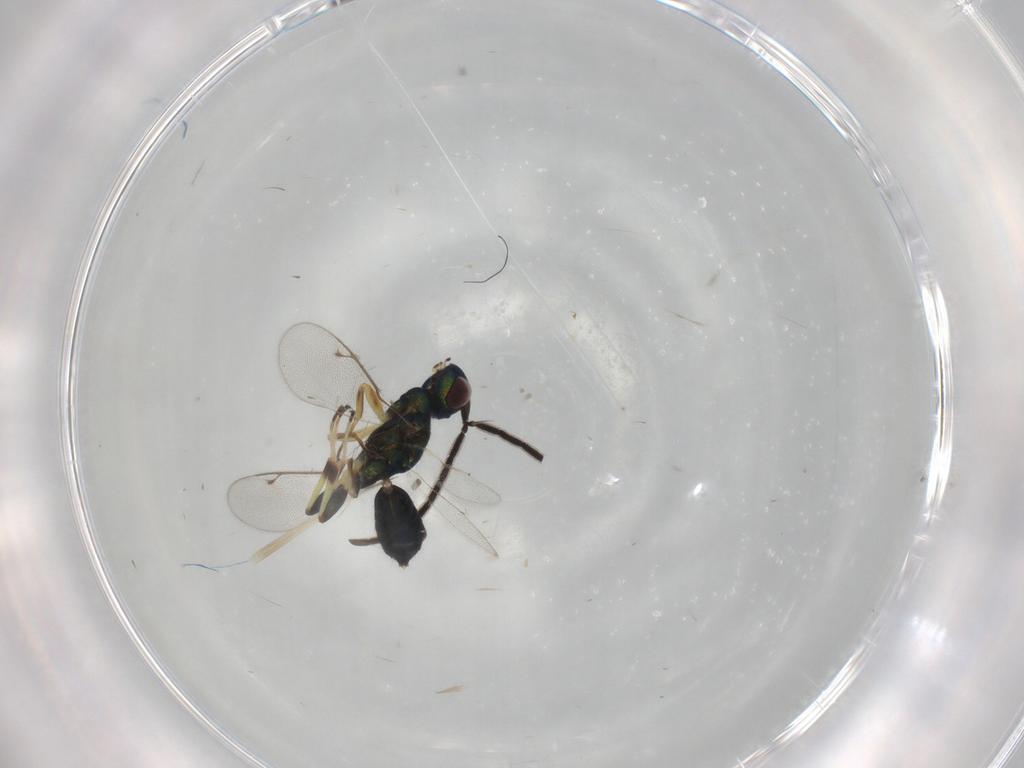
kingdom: Animalia
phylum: Arthropoda
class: Insecta
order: Hymenoptera
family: Eupelmidae
